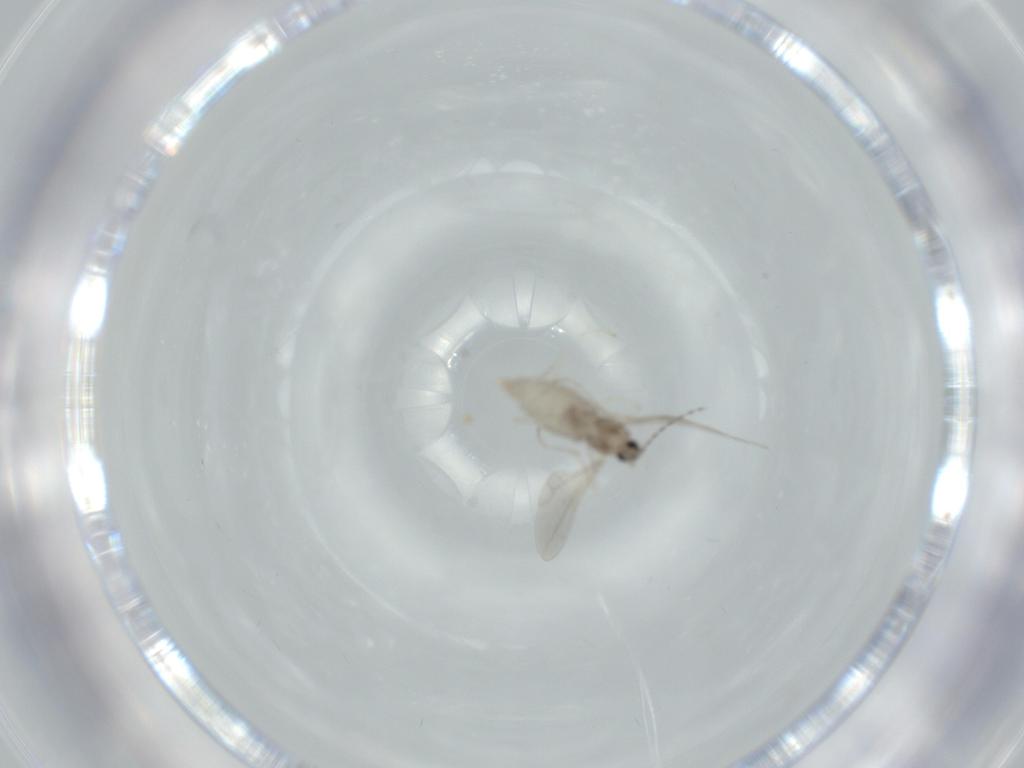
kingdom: Animalia
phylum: Arthropoda
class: Insecta
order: Diptera
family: Cecidomyiidae
